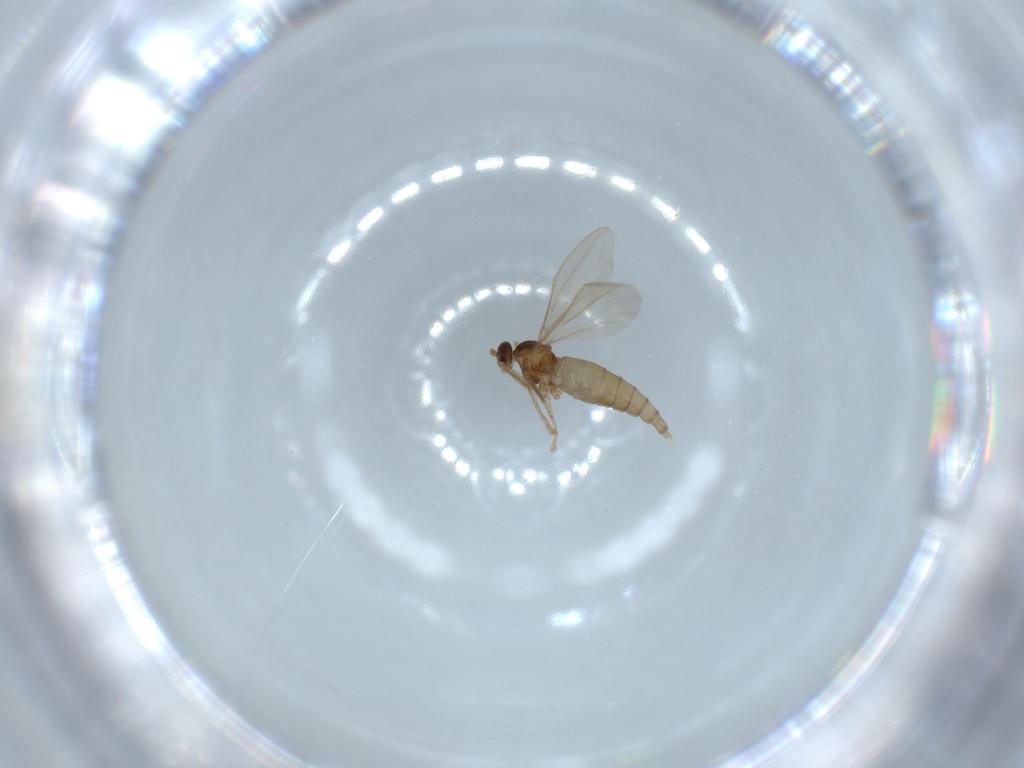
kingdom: Animalia
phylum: Arthropoda
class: Insecta
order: Diptera
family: Cecidomyiidae
